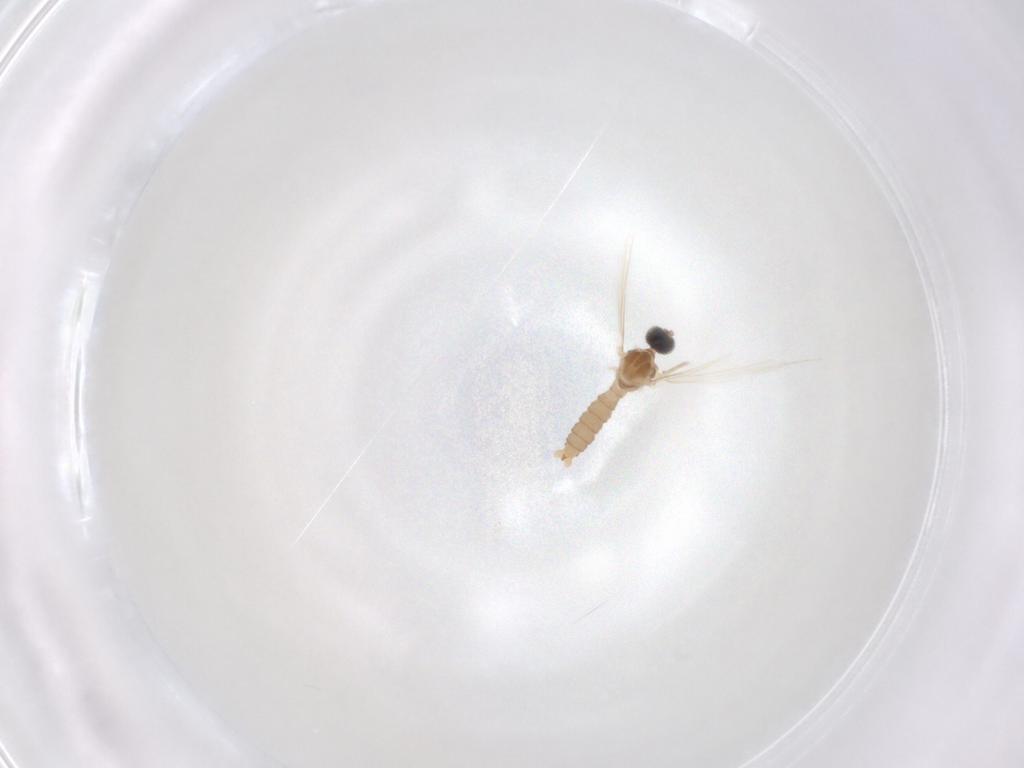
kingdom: Animalia
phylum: Arthropoda
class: Insecta
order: Diptera
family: Cecidomyiidae
